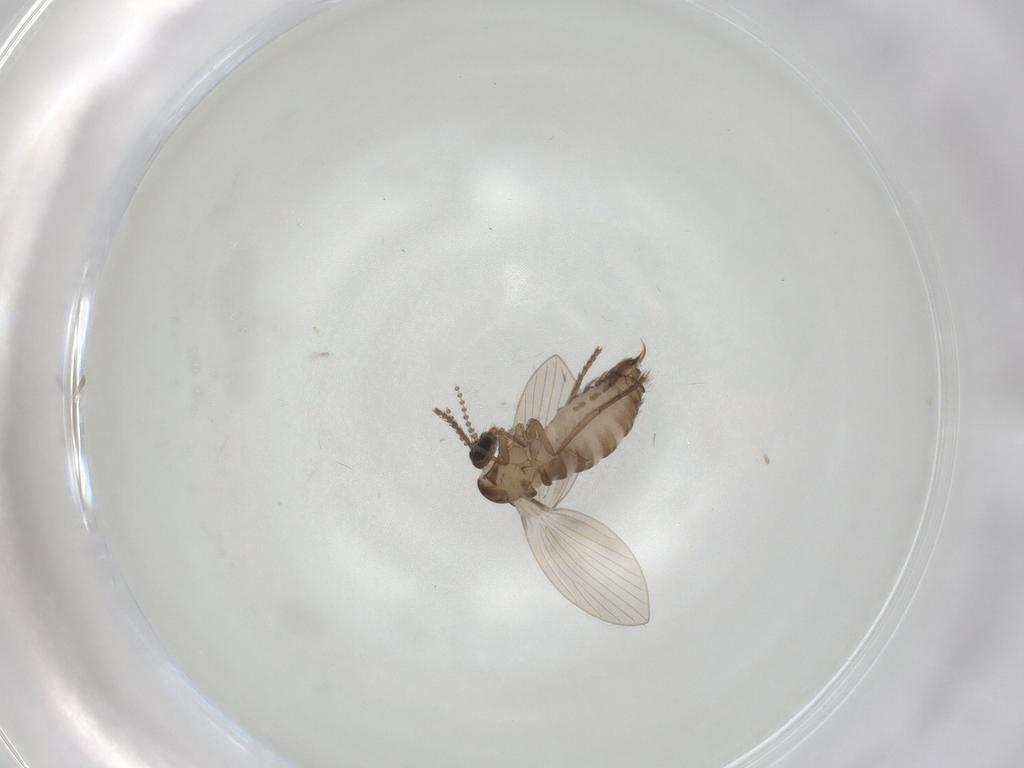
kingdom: Animalia
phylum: Arthropoda
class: Insecta
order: Diptera
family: Psychodidae
